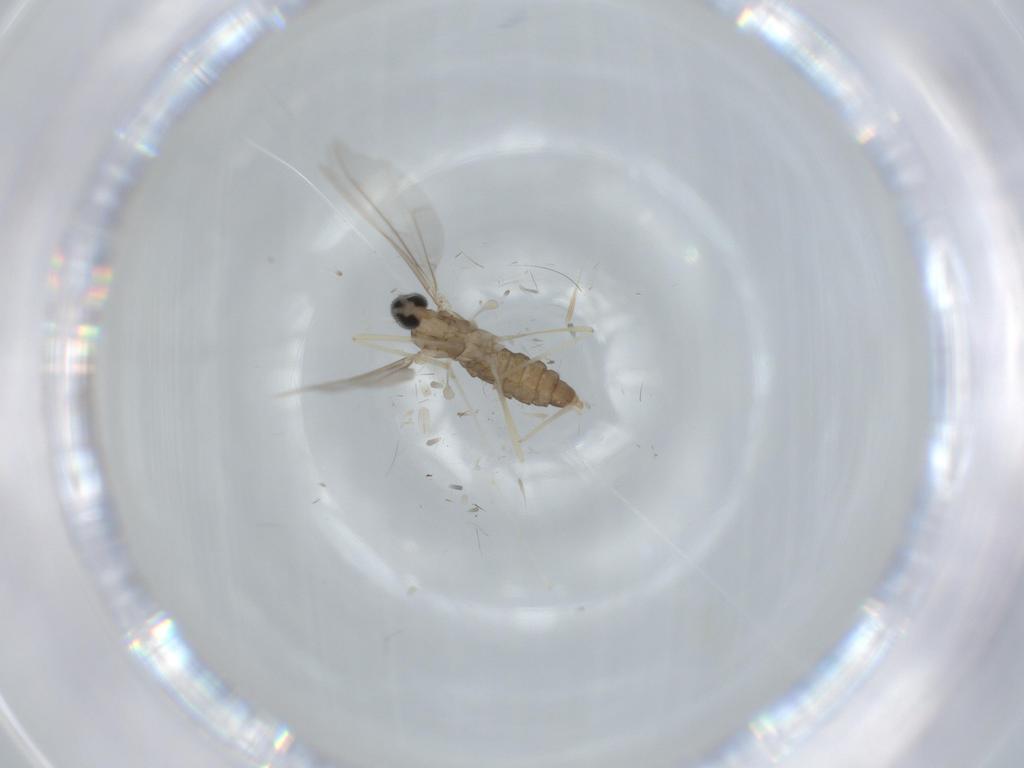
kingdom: Animalia
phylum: Arthropoda
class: Insecta
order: Diptera
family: Cecidomyiidae
